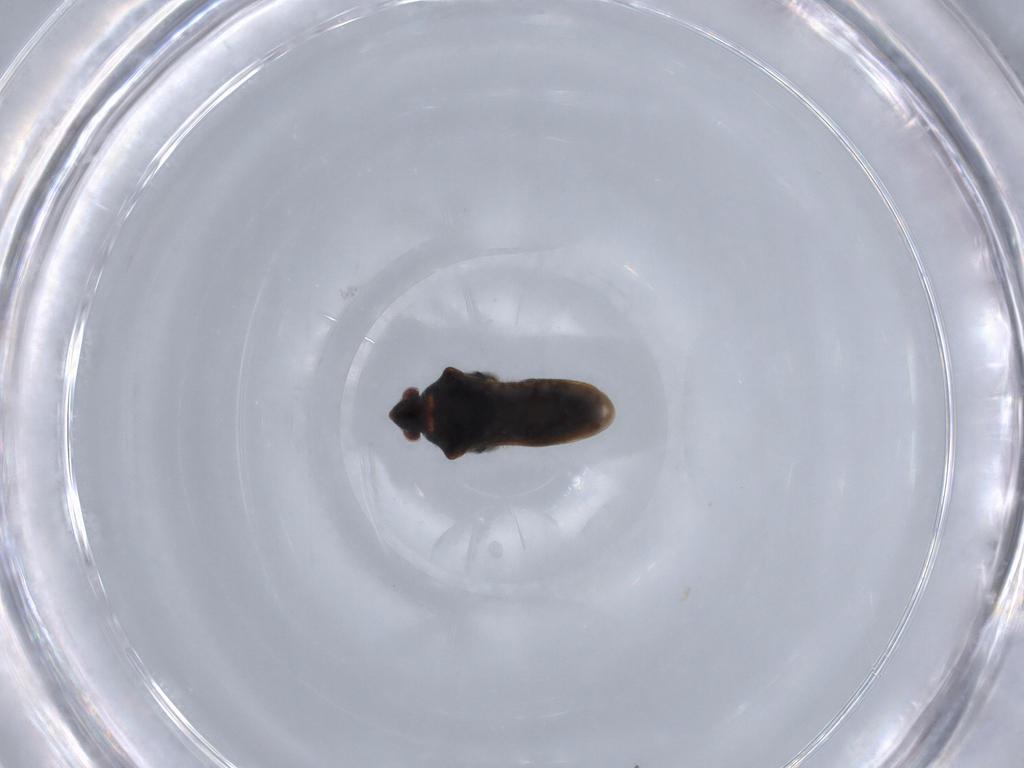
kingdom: Animalia
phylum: Arthropoda
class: Insecta
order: Hemiptera
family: Veliidae
